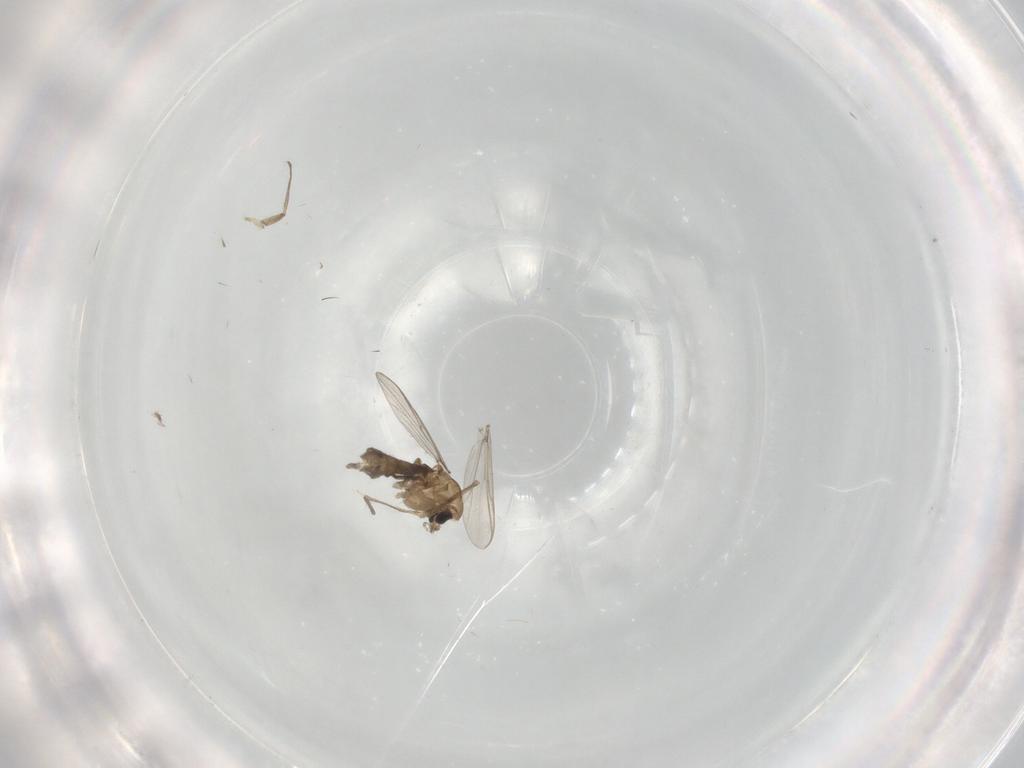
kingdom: Animalia
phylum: Arthropoda
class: Insecta
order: Diptera
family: Chironomidae
